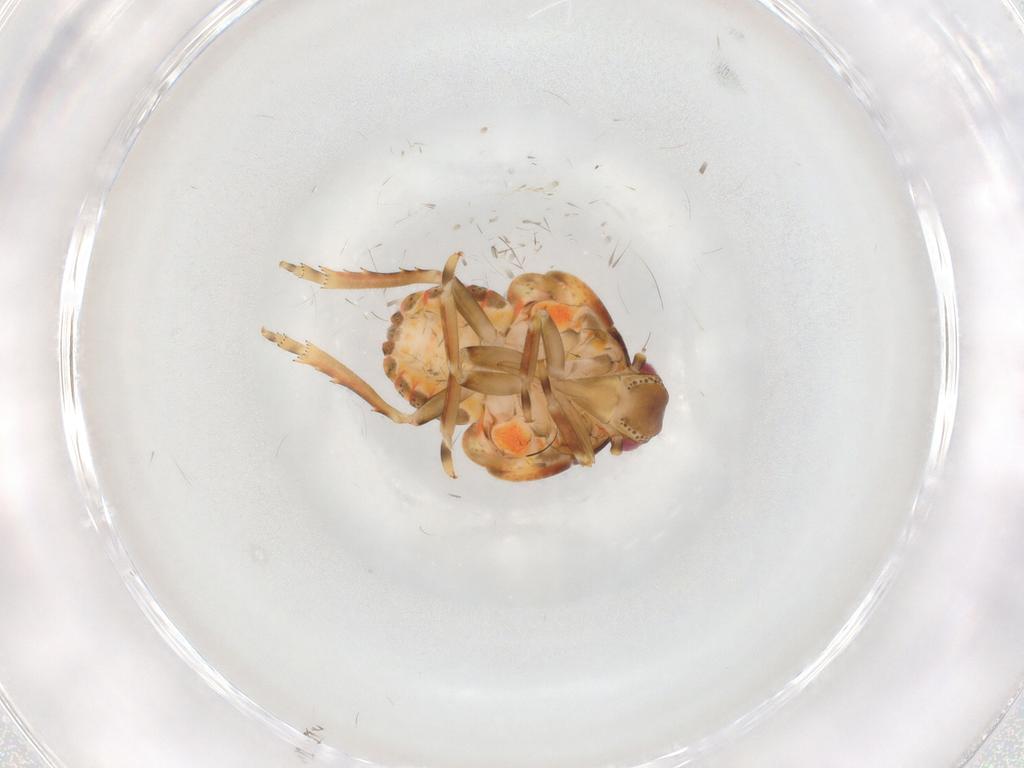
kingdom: Animalia
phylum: Arthropoda
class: Insecta
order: Hemiptera
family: Flatidae
